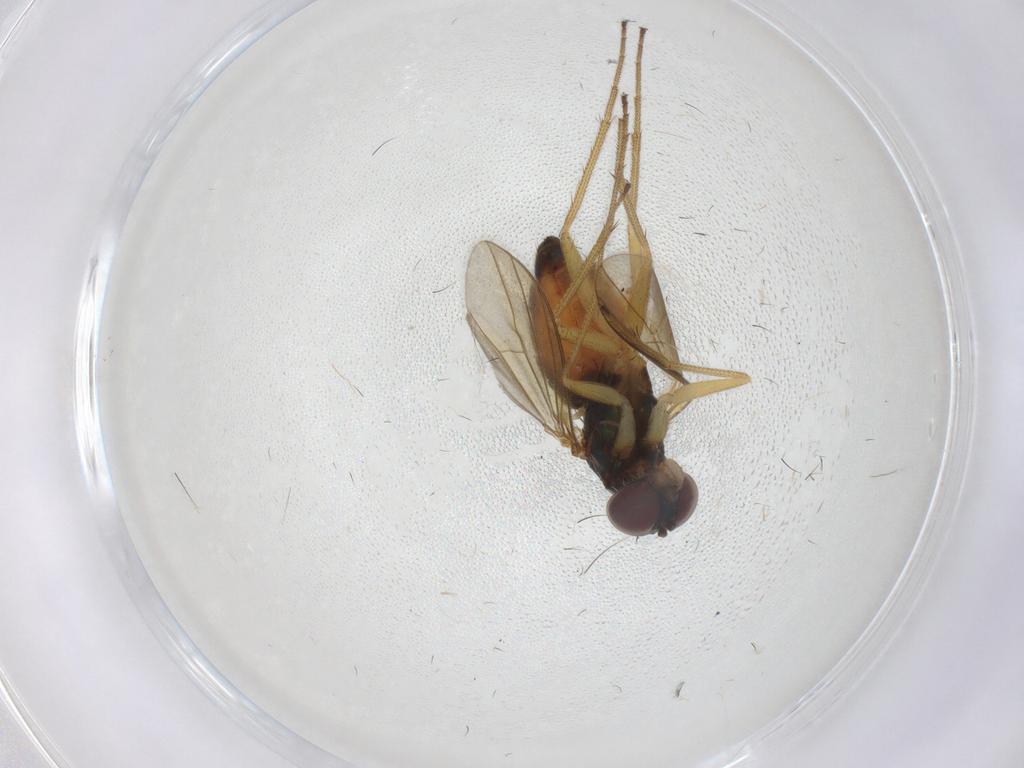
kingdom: Animalia
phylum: Arthropoda
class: Insecta
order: Diptera
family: Dolichopodidae
